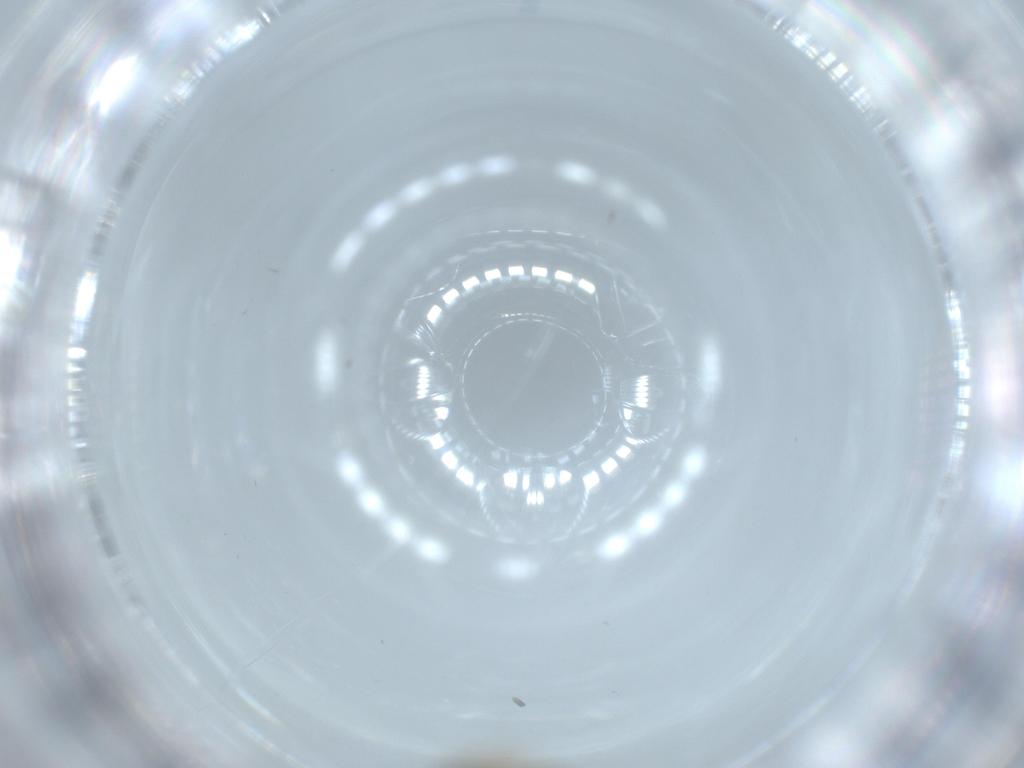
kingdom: Animalia
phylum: Arthropoda
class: Insecta
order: Diptera
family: Cecidomyiidae
